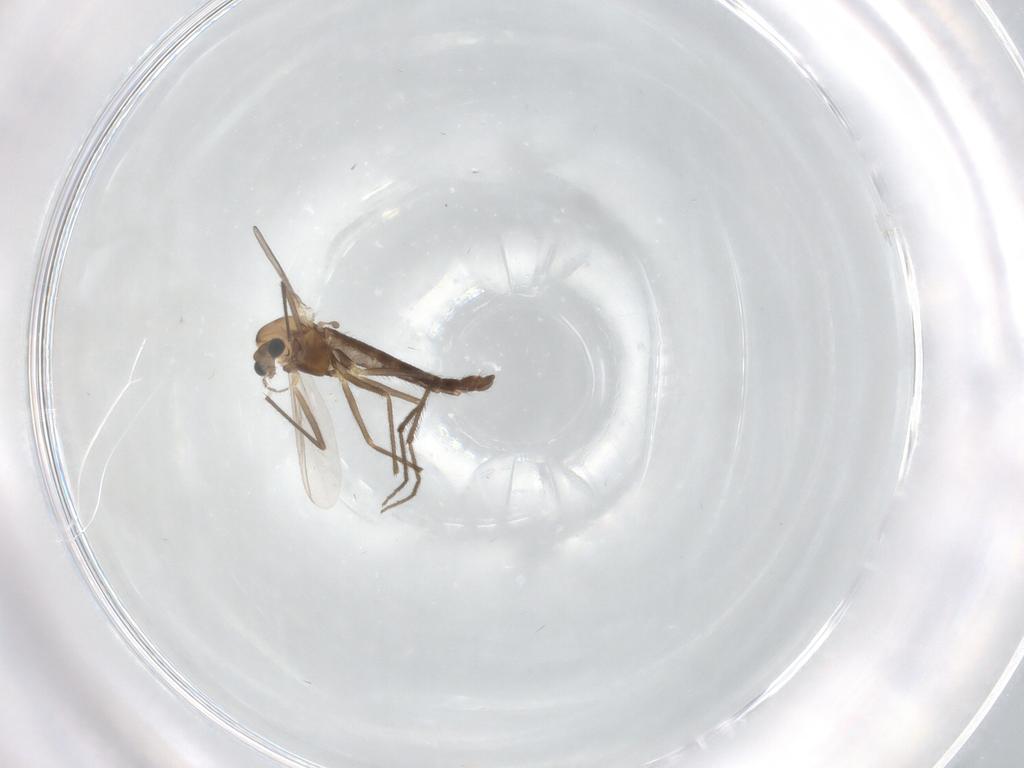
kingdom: Animalia
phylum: Arthropoda
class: Insecta
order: Diptera
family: Chironomidae
